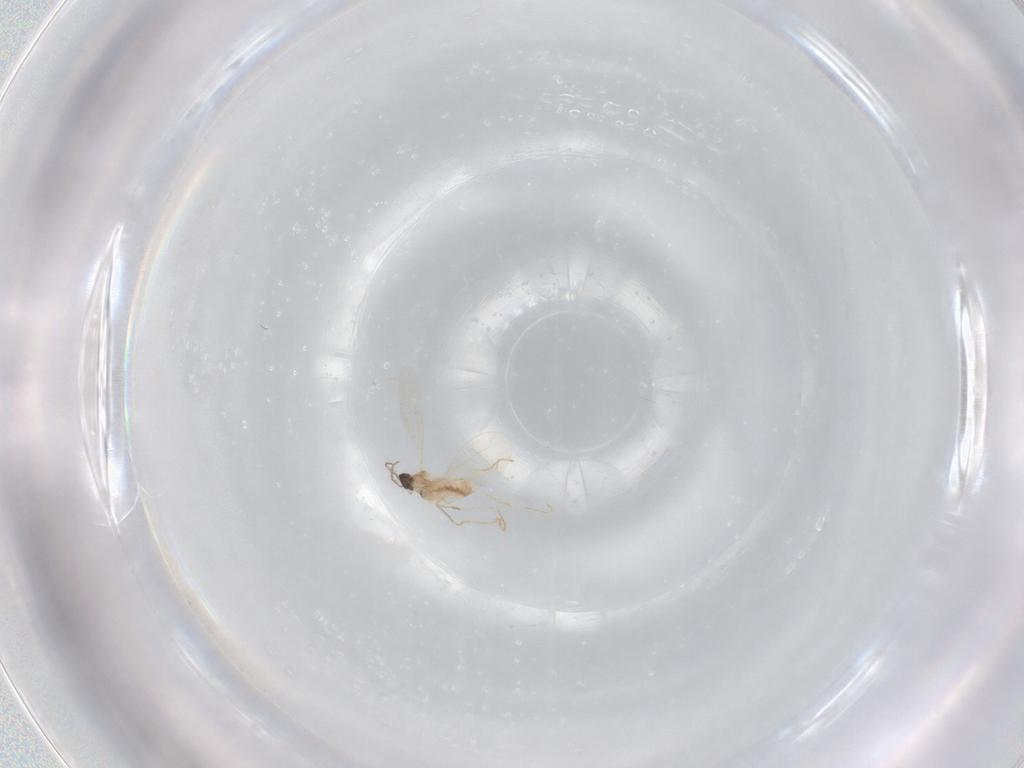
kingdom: Animalia
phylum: Arthropoda
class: Insecta
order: Diptera
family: Cecidomyiidae
